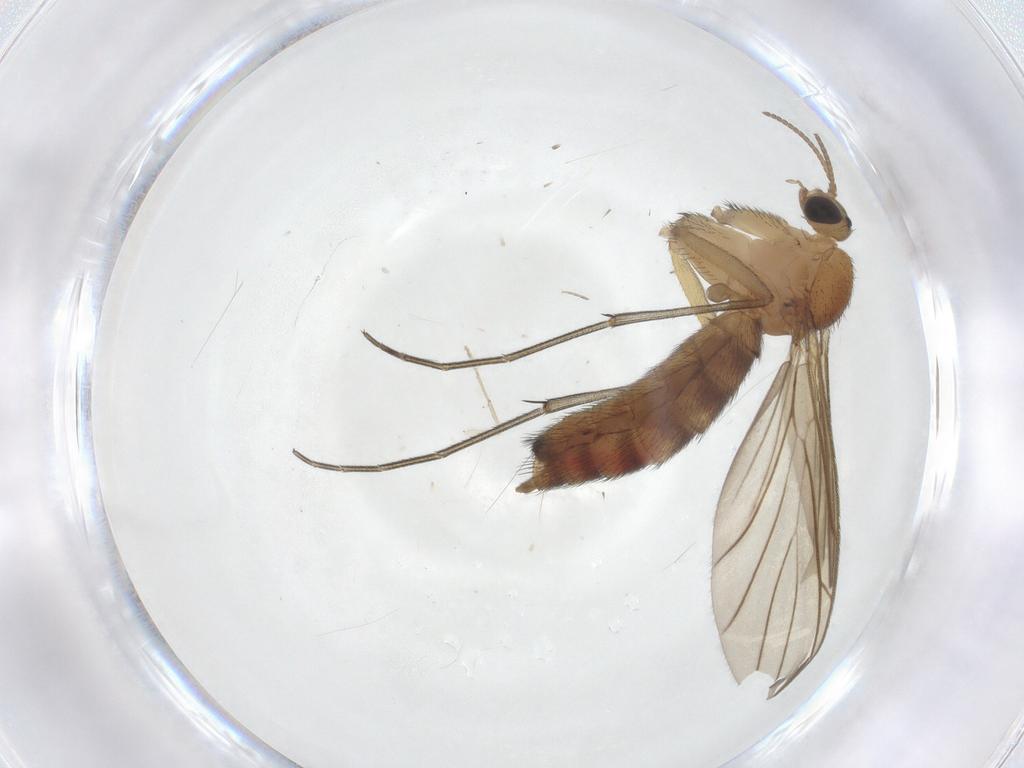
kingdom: Animalia
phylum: Arthropoda
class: Insecta
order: Diptera
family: Keroplatidae
